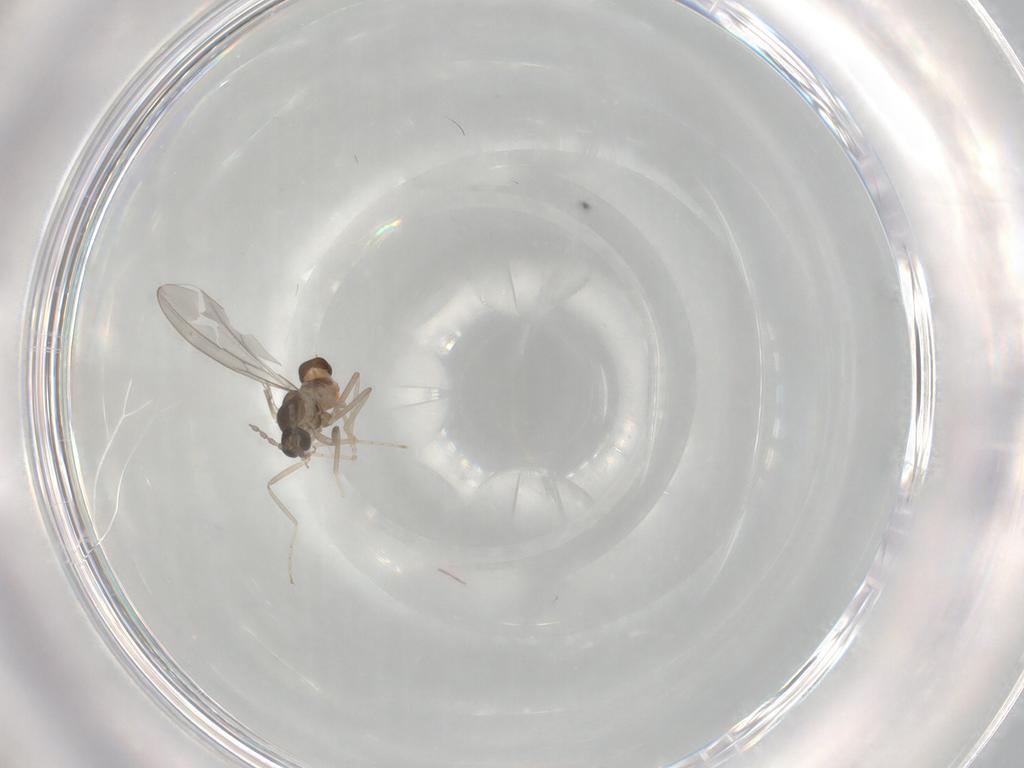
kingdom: Animalia
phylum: Arthropoda
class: Insecta
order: Diptera
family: Cecidomyiidae
